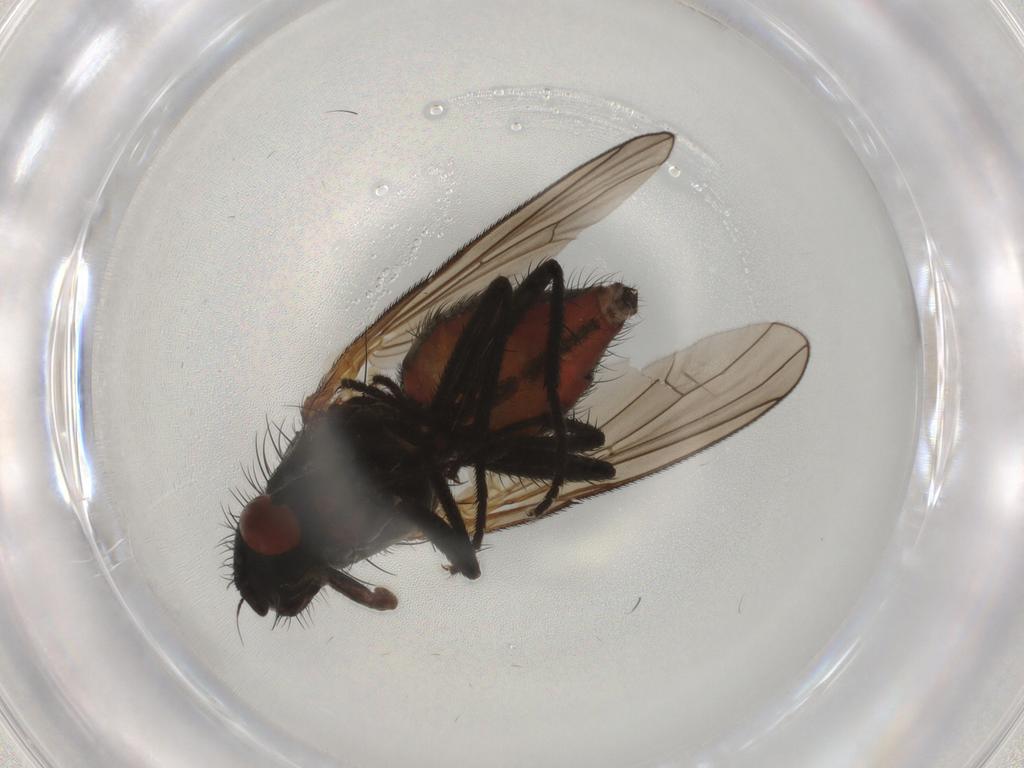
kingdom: Animalia
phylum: Arthropoda
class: Insecta
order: Diptera
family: Anthomyiidae
